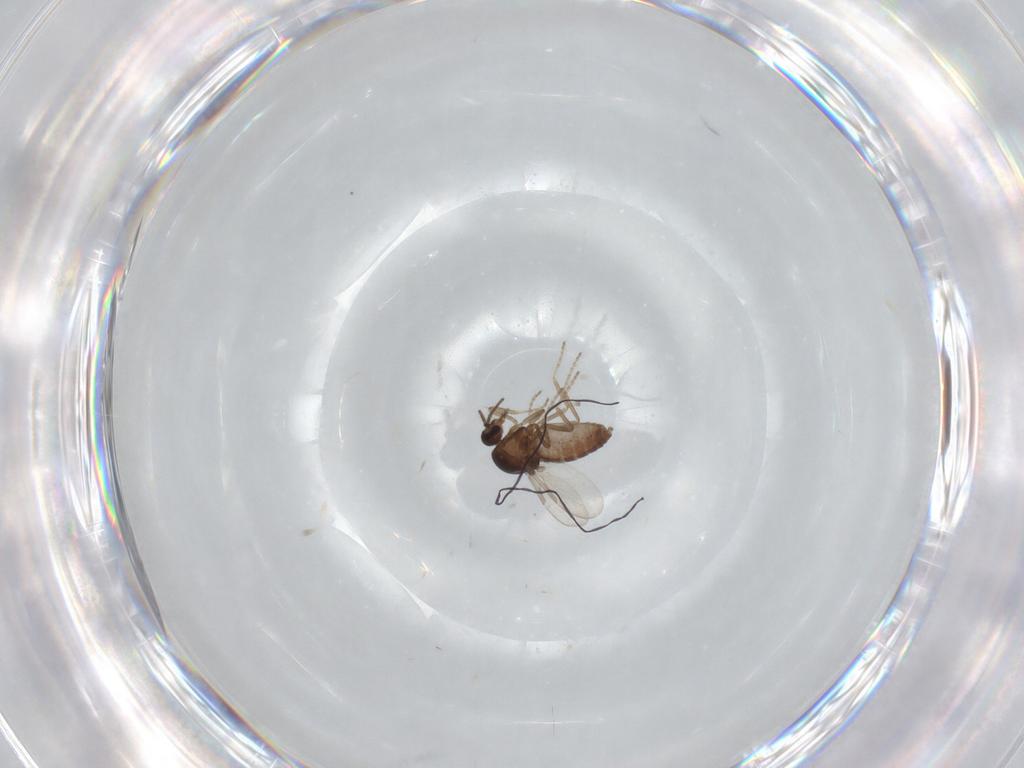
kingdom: Animalia
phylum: Arthropoda
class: Insecta
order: Diptera
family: Ceratopogonidae
